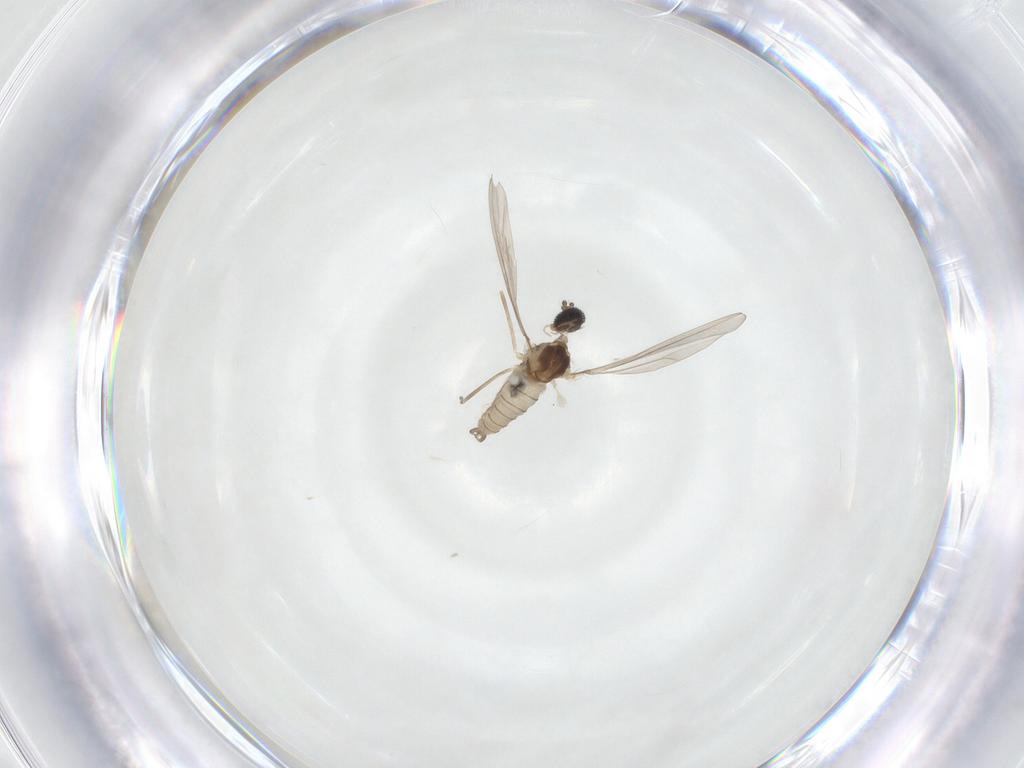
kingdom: Animalia
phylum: Arthropoda
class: Insecta
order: Diptera
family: Cecidomyiidae
